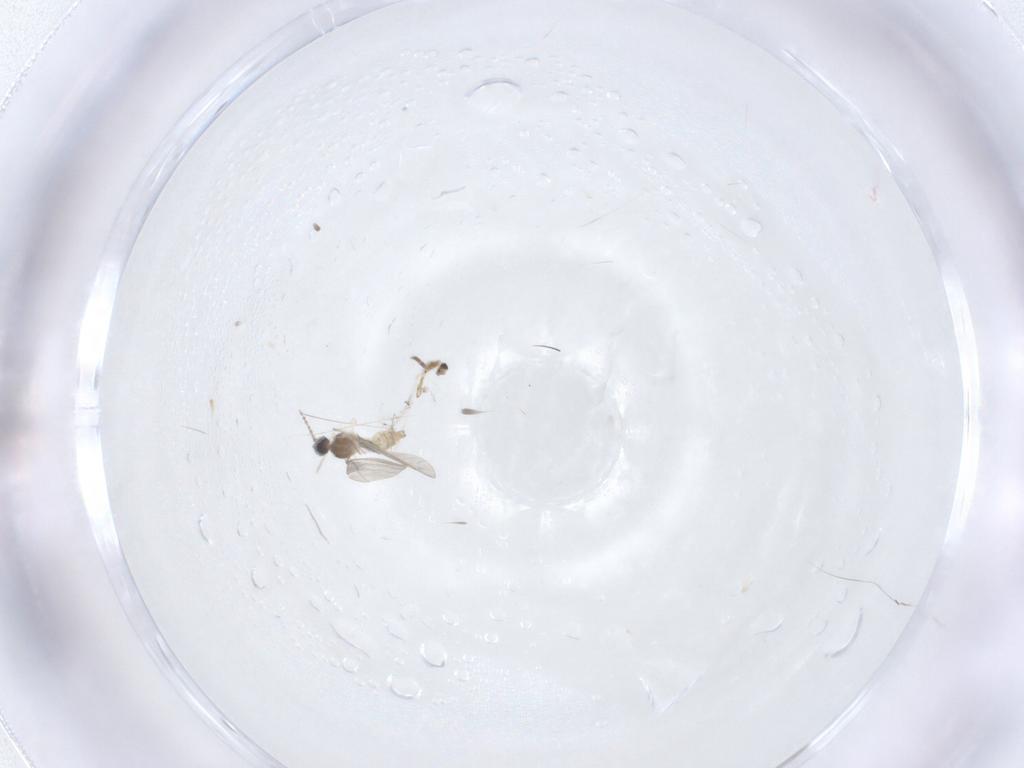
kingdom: Animalia
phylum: Arthropoda
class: Insecta
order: Diptera
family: Cecidomyiidae
